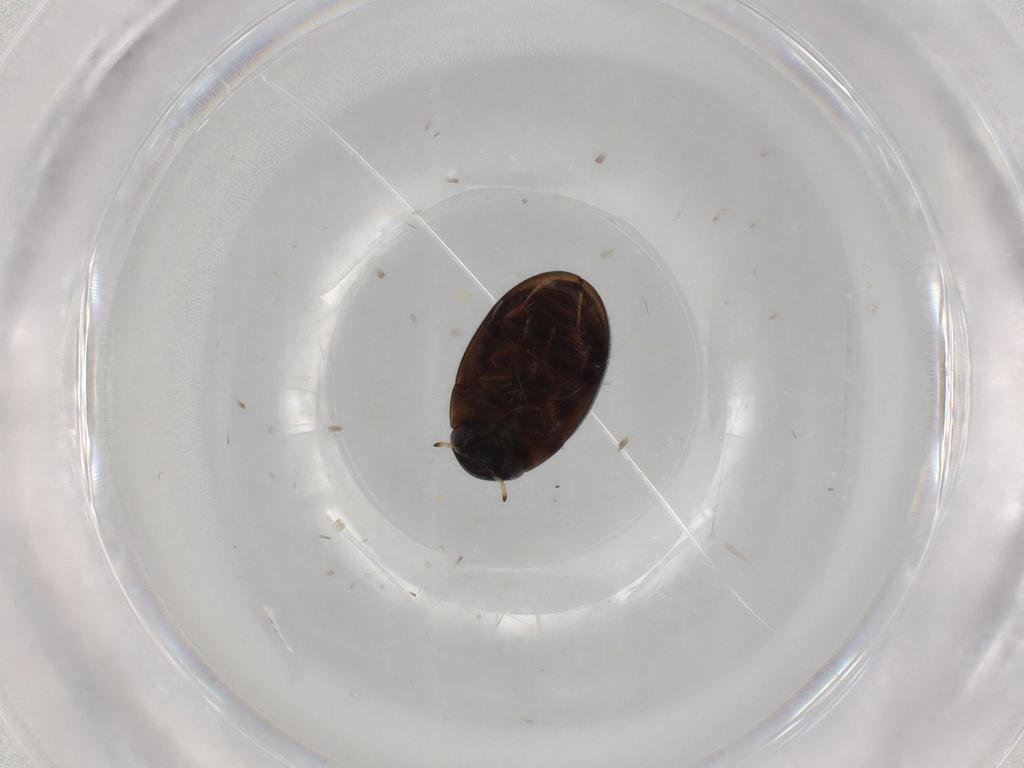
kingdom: Animalia
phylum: Arthropoda
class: Insecta
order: Coleoptera
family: Hydrophilidae
